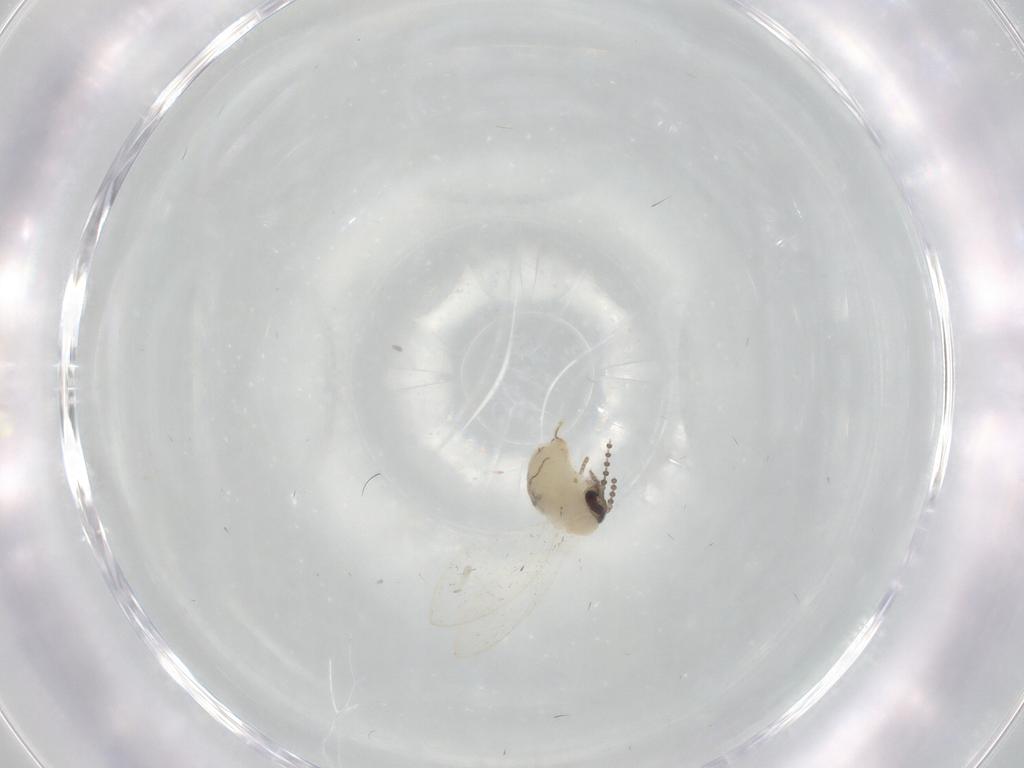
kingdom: Animalia
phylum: Arthropoda
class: Insecta
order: Diptera
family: Psychodidae
